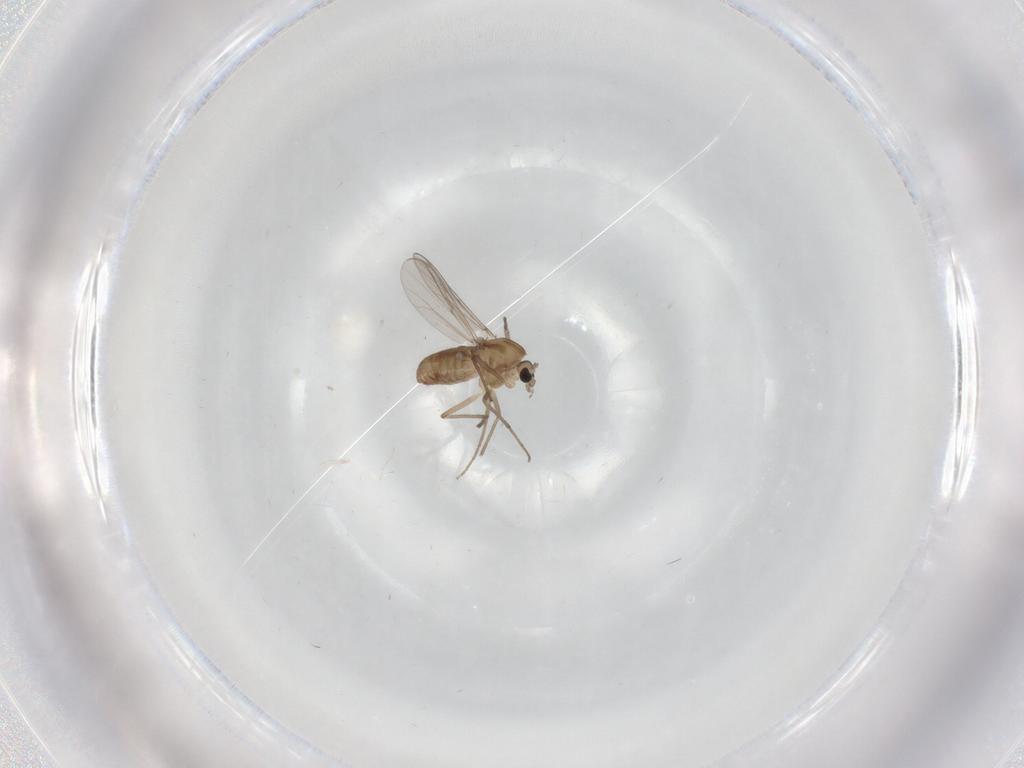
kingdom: Animalia
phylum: Arthropoda
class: Insecta
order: Diptera
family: Chironomidae
